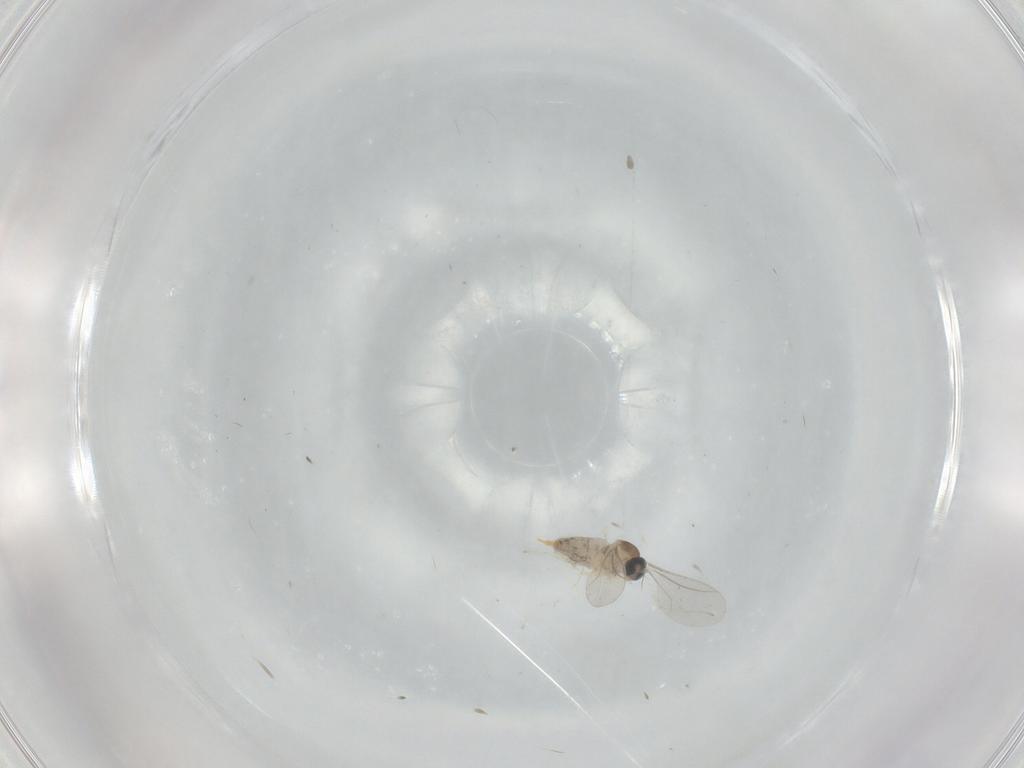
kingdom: Animalia
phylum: Arthropoda
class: Insecta
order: Diptera
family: Cecidomyiidae
